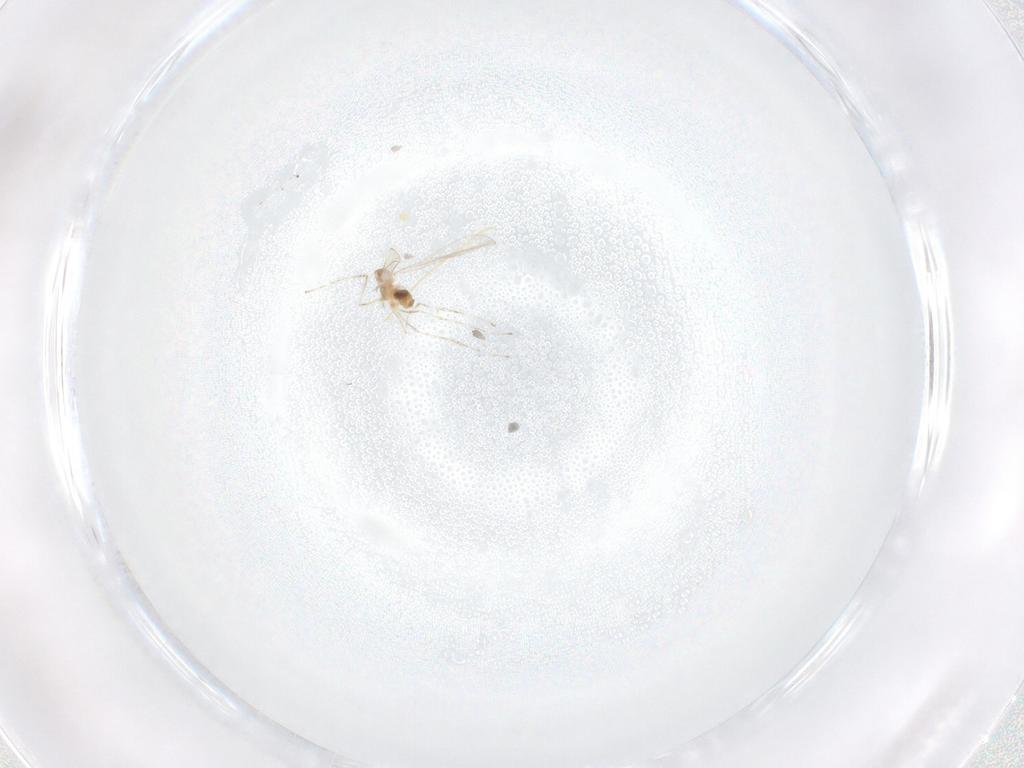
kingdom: Animalia
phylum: Arthropoda
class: Insecta
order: Diptera
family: Cecidomyiidae
